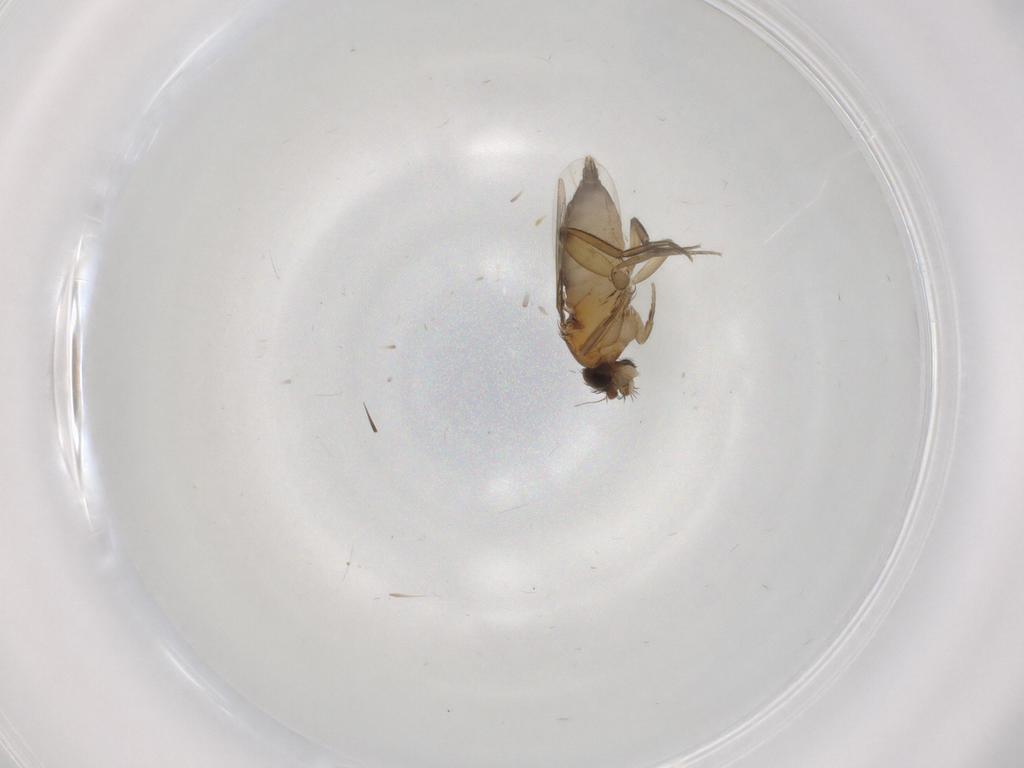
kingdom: Animalia
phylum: Arthropoda
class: Insecta
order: Diptera
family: Phoridae
